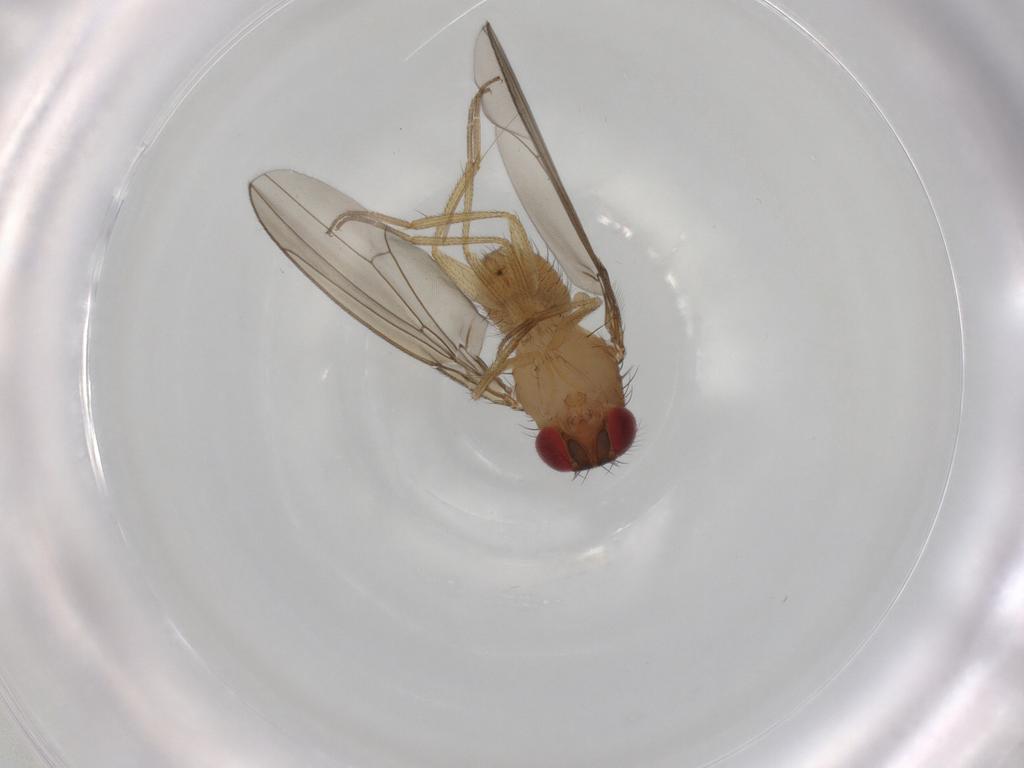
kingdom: Animalia
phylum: Arthropoda
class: Insecta
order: Diptera
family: Drosophilidae
